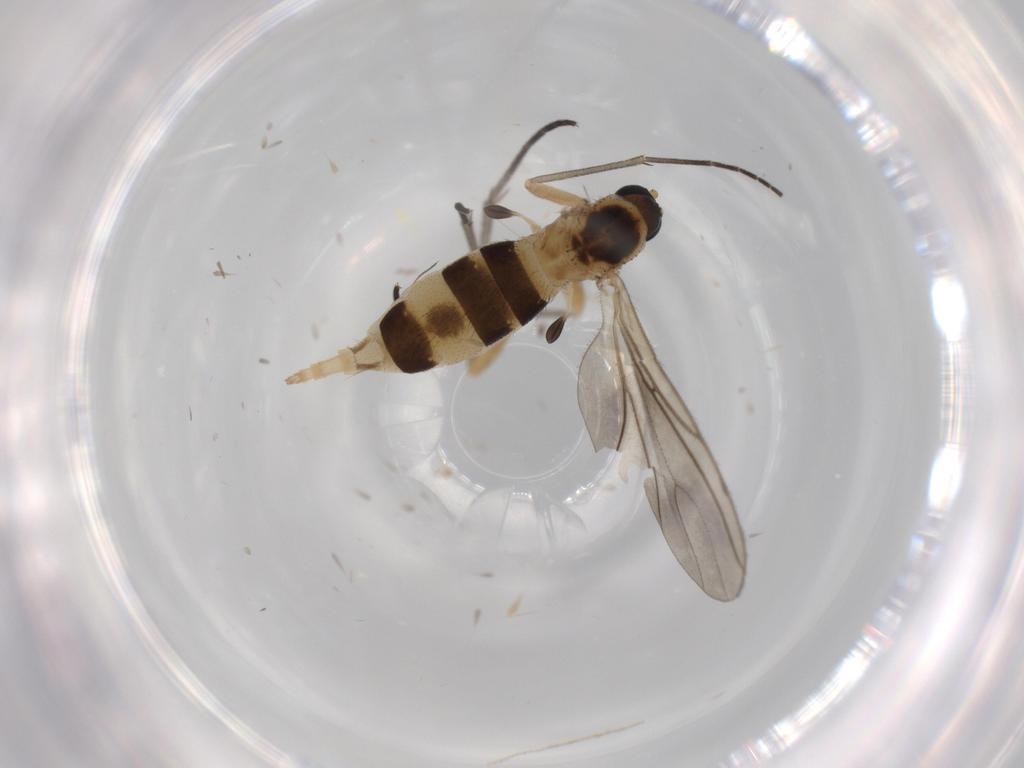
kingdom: Animalia
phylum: Arthropoda
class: Insecta
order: Diptera
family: Sciaridae
